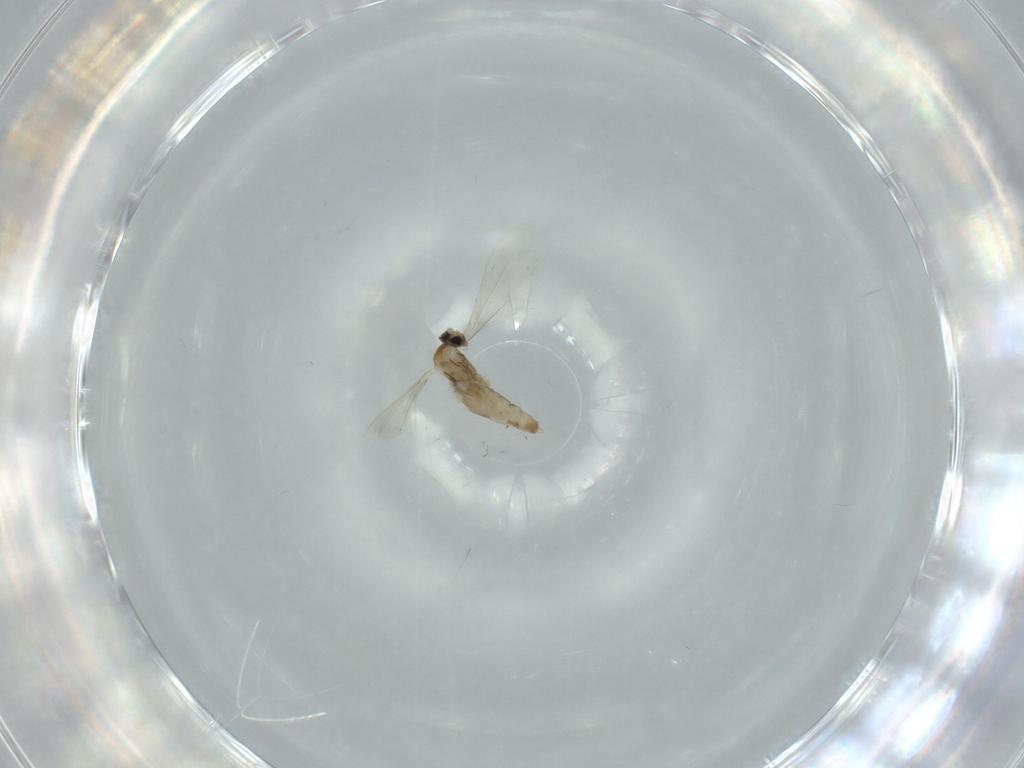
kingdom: Animalia
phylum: Arthropoda
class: Insecta
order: Diptera
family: Cecidomyiidae
